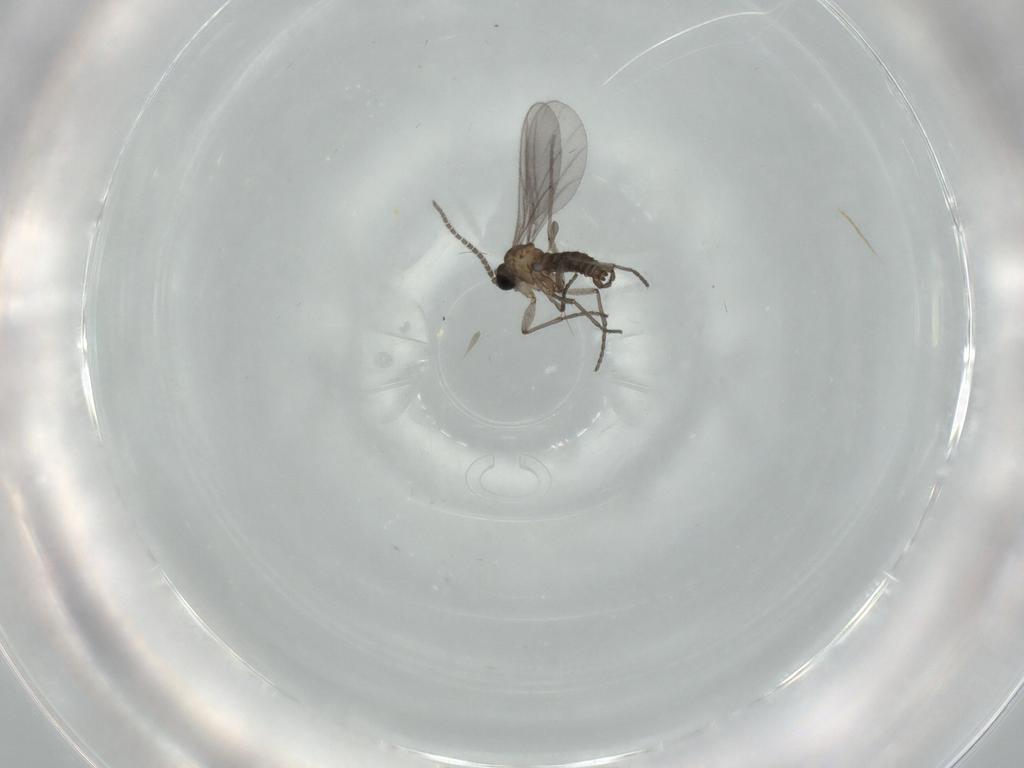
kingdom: Animalia
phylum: Arthropoda
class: Insecta
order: Diptera
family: Sciaridae
